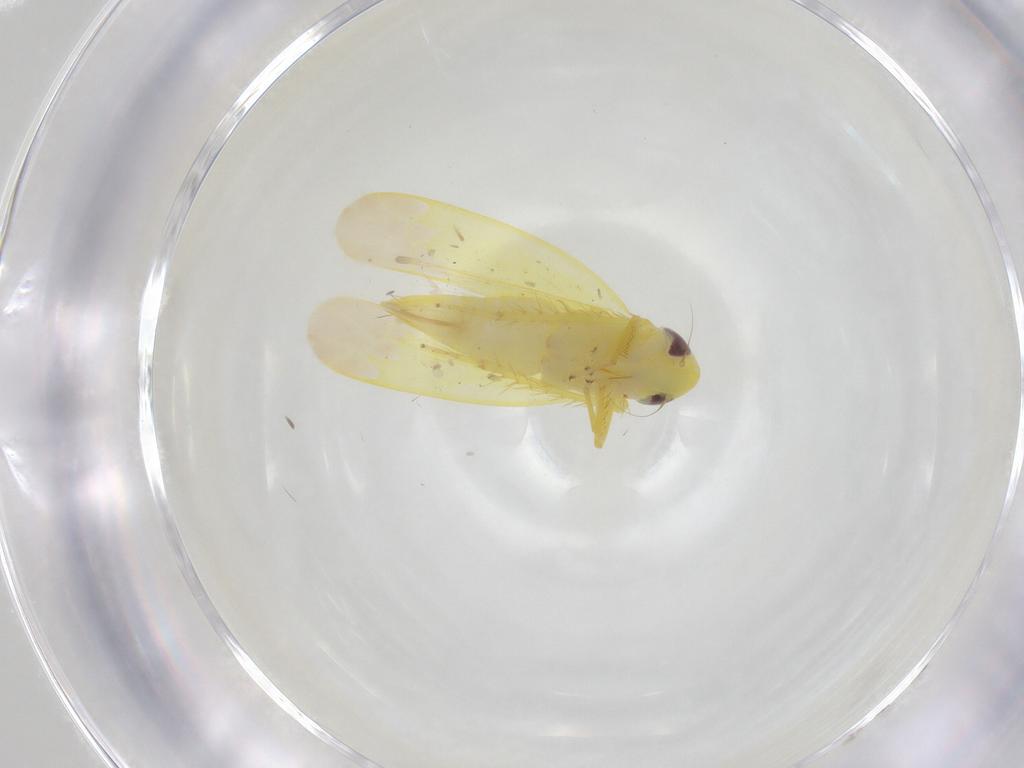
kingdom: Animalia
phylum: Arthropoda
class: Insecta
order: Hemiptera
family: Cicadellidae
